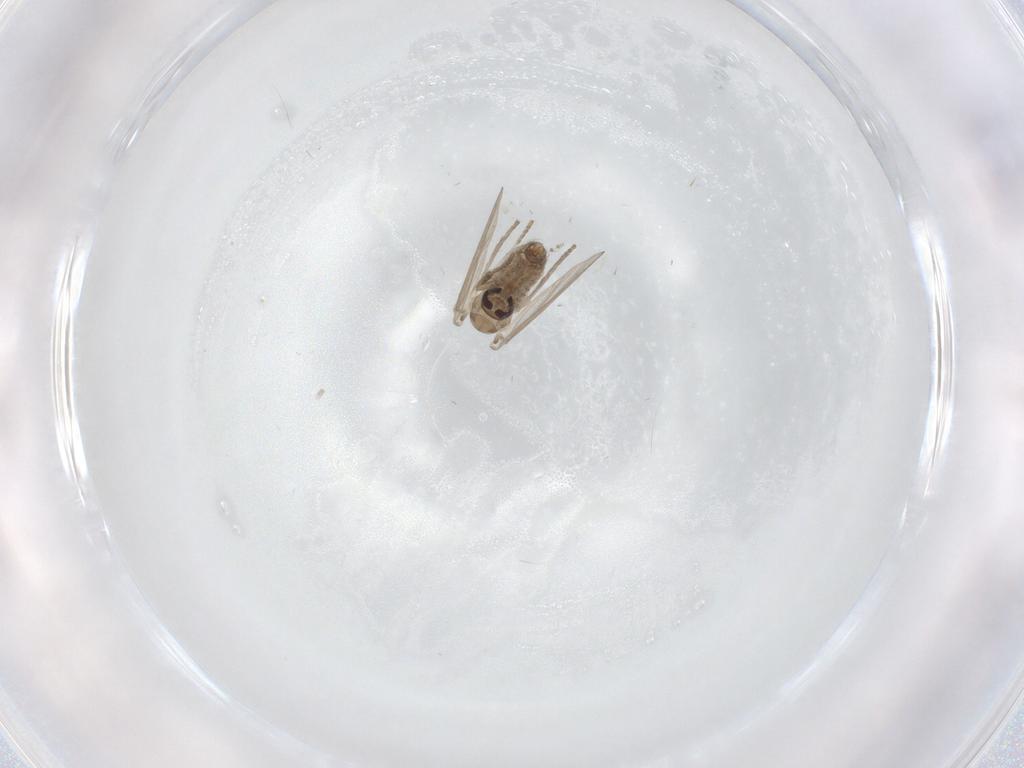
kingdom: Animalia
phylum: Arthropoda
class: Insecta
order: Diptera
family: Psychodidae
